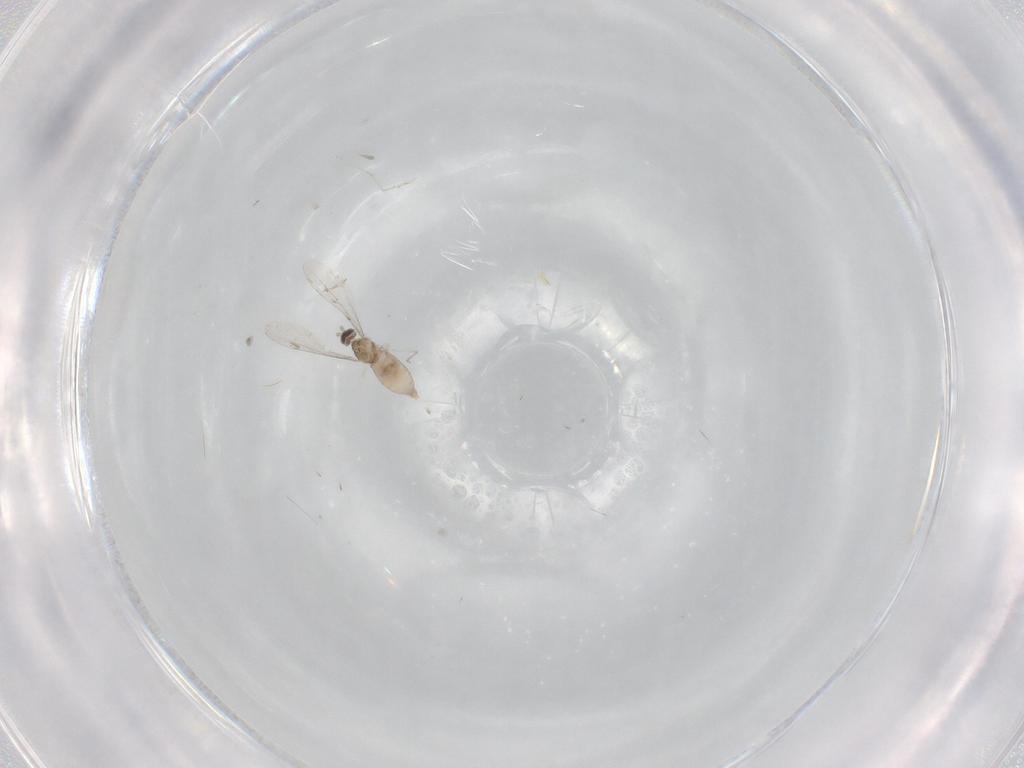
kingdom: Animalia
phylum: Arthropoda
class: Insecta
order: Diptera
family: Cecidomyiidae
